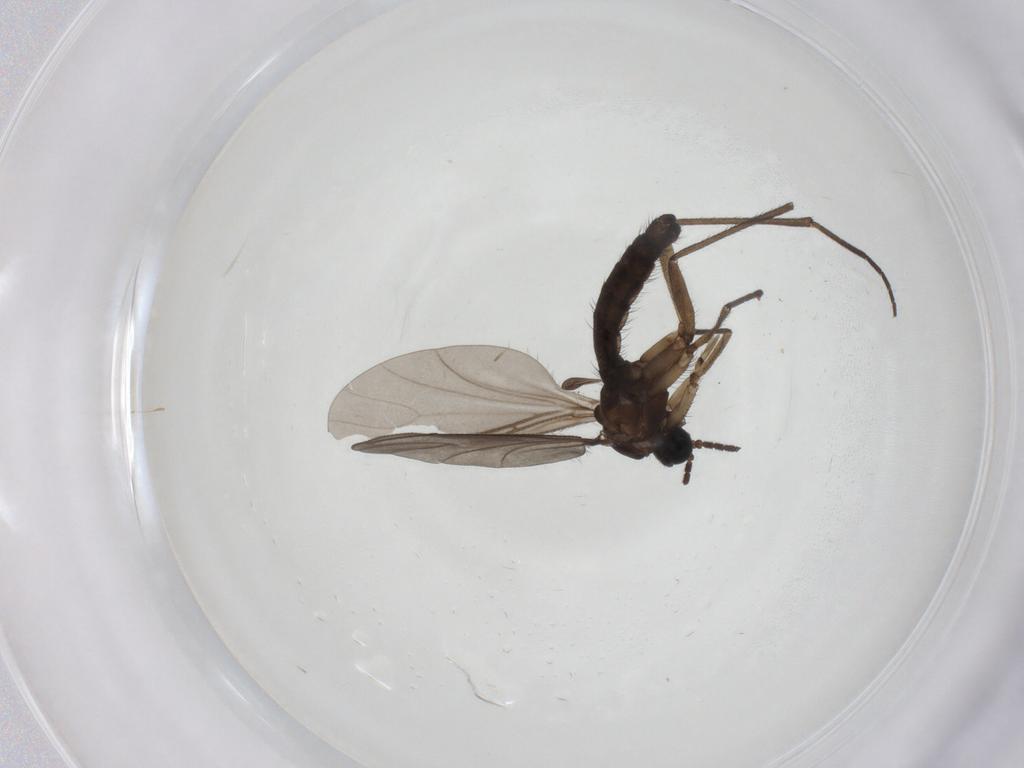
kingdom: Animalia
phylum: Arthropoda
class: Insecta
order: Diptera
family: Sciaridae
